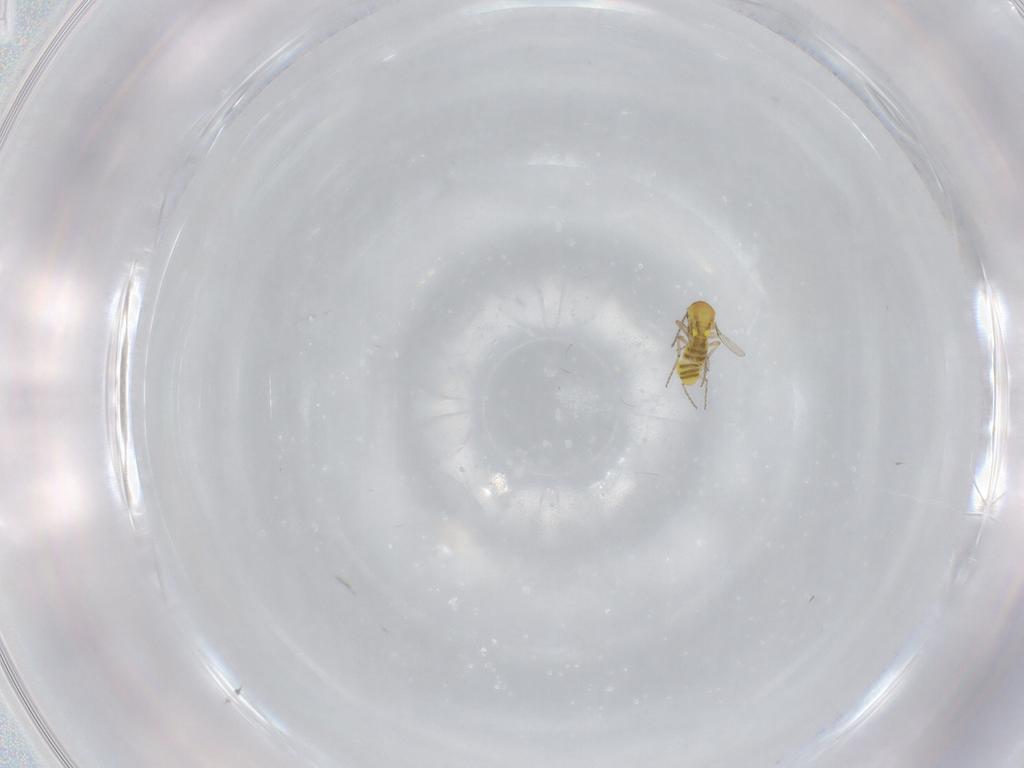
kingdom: Animalia
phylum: Arthropoda
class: Insecta
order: Diptera
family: Ceratopogonidae
